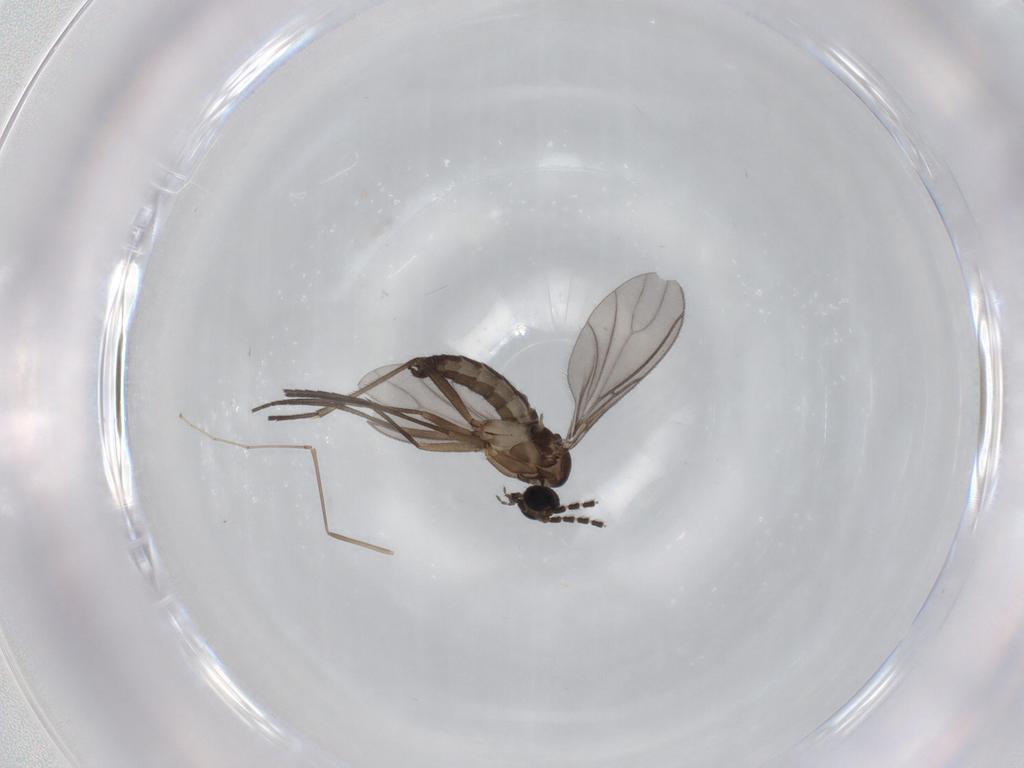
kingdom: Animalia
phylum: Arthropoda
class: Insecta
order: Diptera
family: Sciaridae
